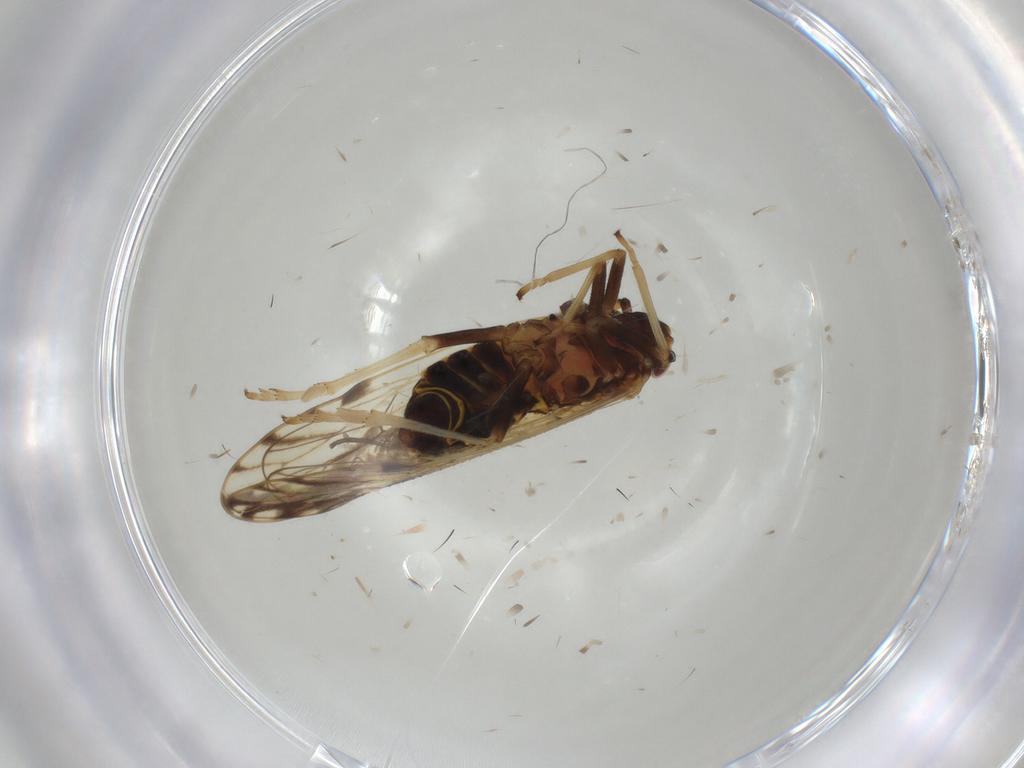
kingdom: Animalia
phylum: Arthropoda
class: Insecta
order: Hemiptera
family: Delphacidae
